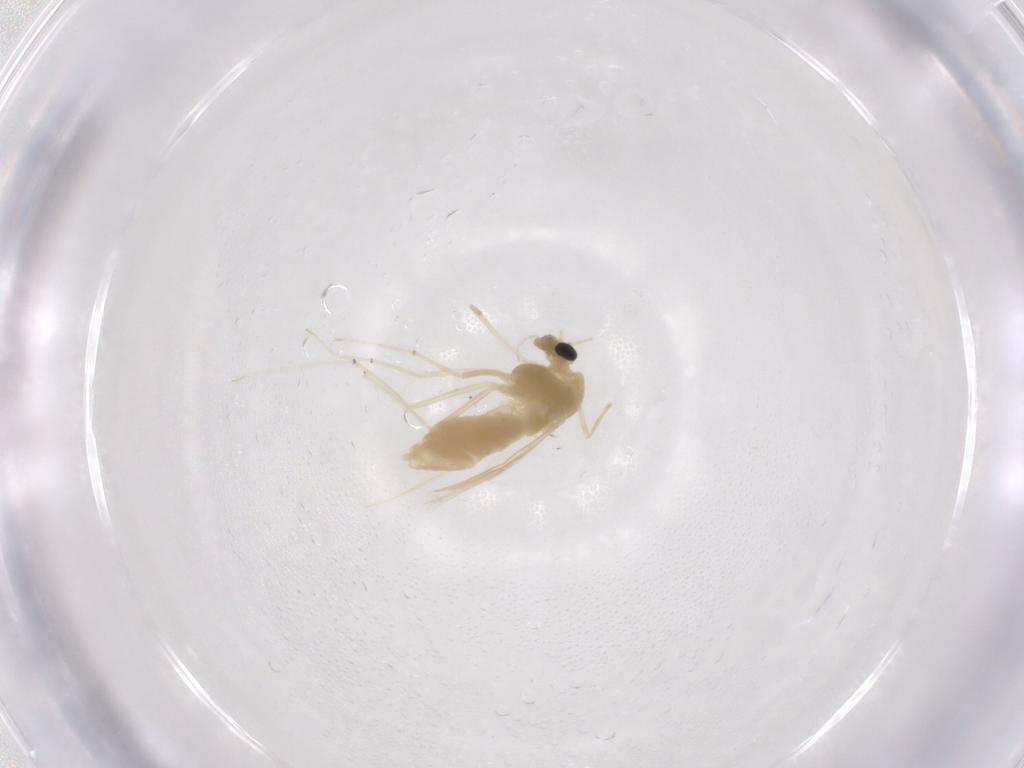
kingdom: Animalia
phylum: Arthropoda
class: Insecta
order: Diptera
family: Chironomidae
